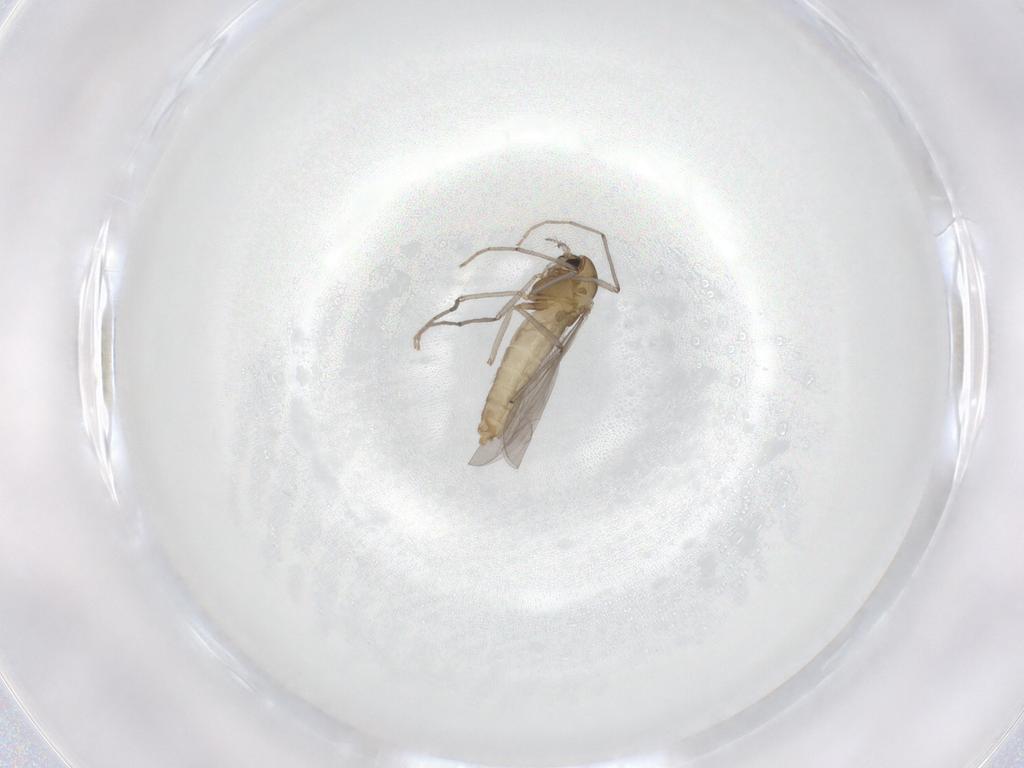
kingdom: Animalia
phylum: Arthropoda
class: Insecta
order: Diptera
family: Chironomidae
